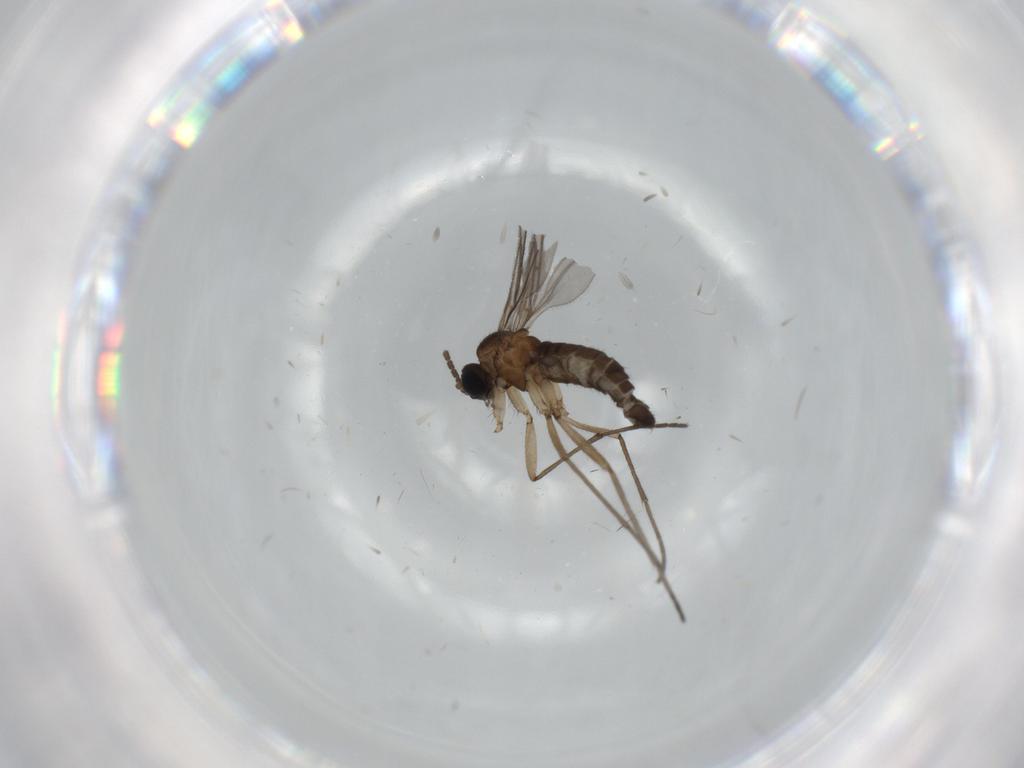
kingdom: Animalia
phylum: Arthropoda
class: Insecta
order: Diptera
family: Sciaridae
